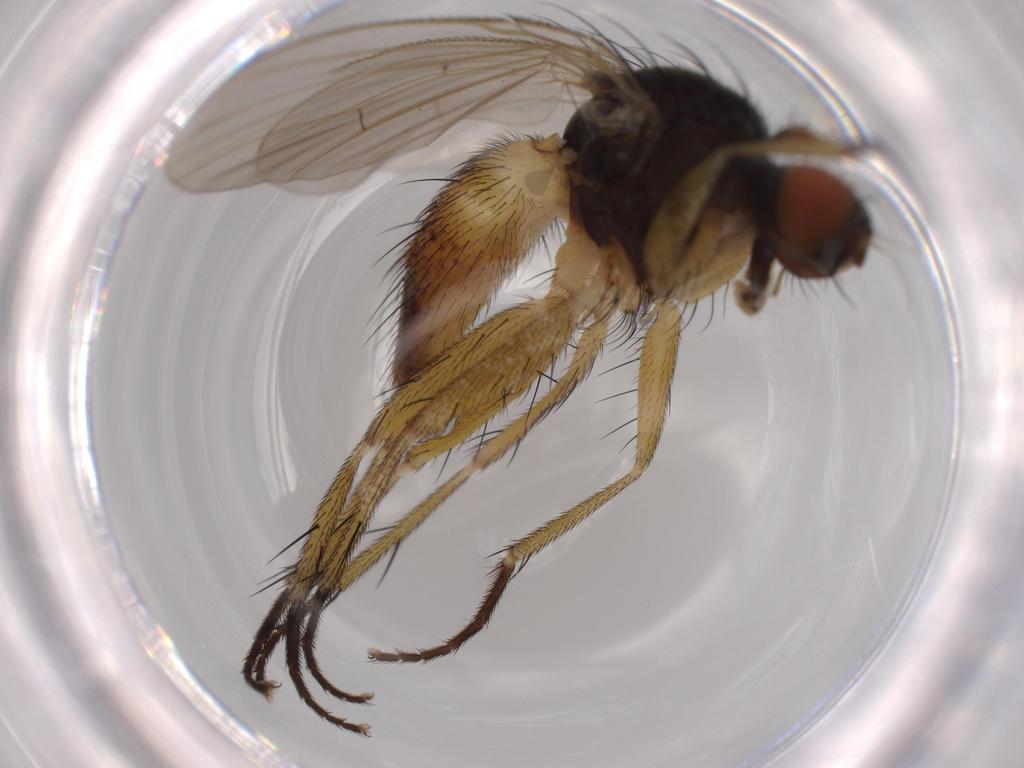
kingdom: Animalia
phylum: Arthropoda
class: Insecta
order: Diptera
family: Muscidae
